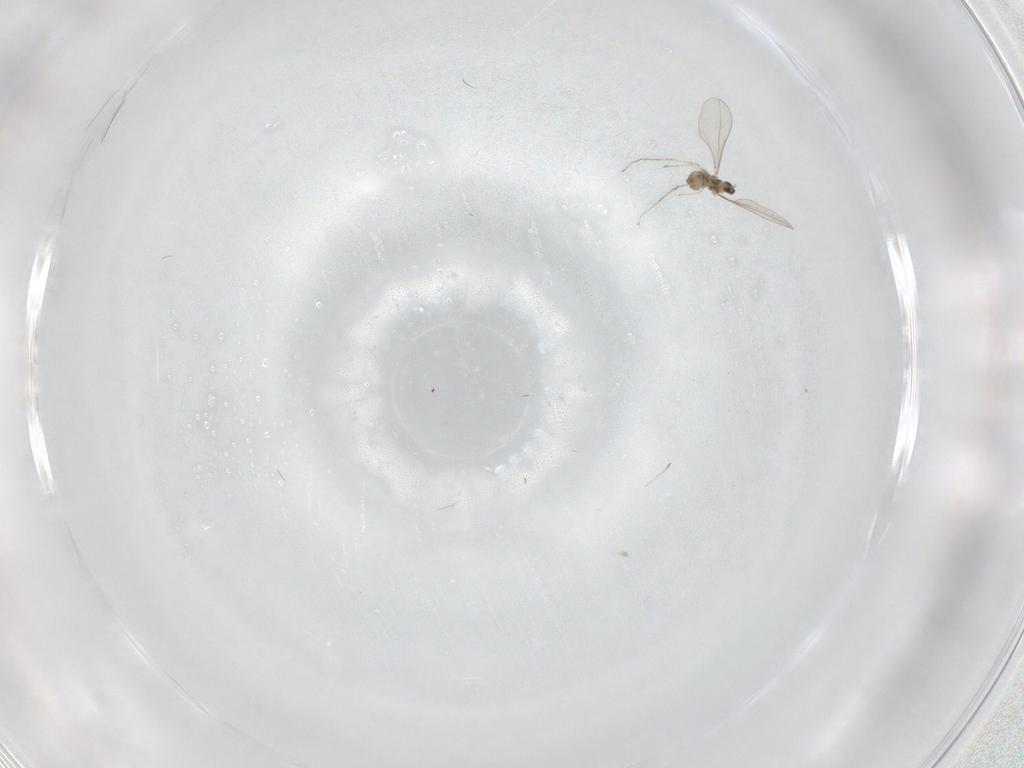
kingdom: Animalia
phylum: Arthropoda
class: Insecta
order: Diptera
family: Cecidomyiidae
